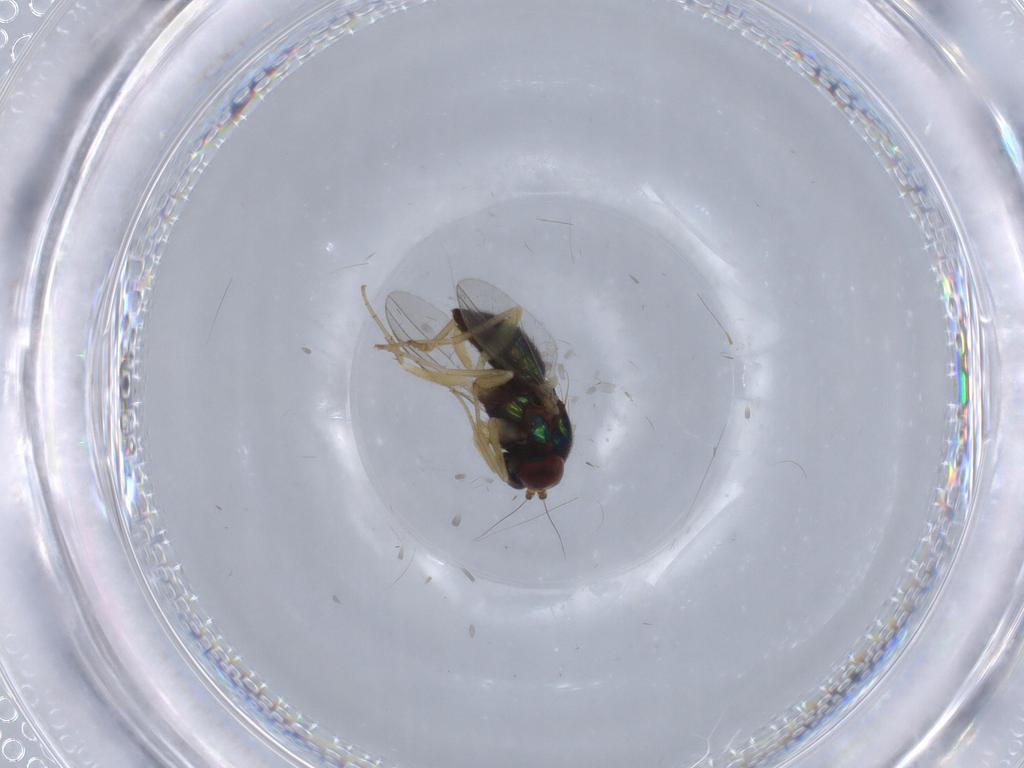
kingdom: Animalia
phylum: Arthropoda
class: Insecta
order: Diptera
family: Dolichopodidae
